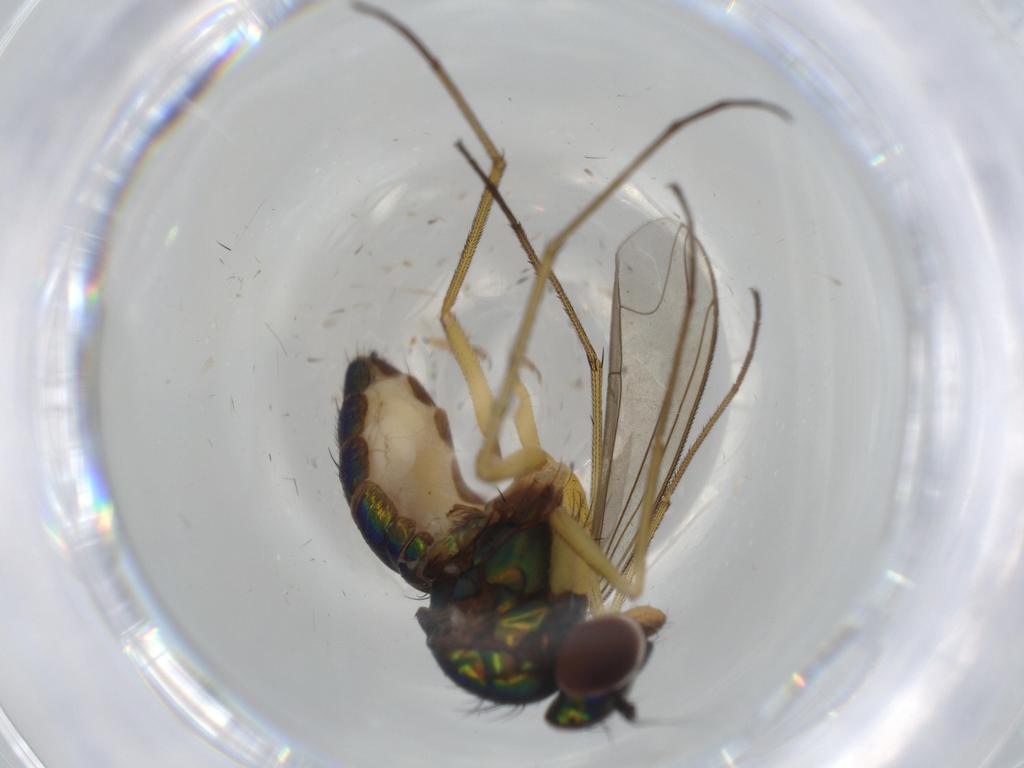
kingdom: Animalia
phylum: Arthropoda
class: Insecta
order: Diptera
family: Dolichopodidae
